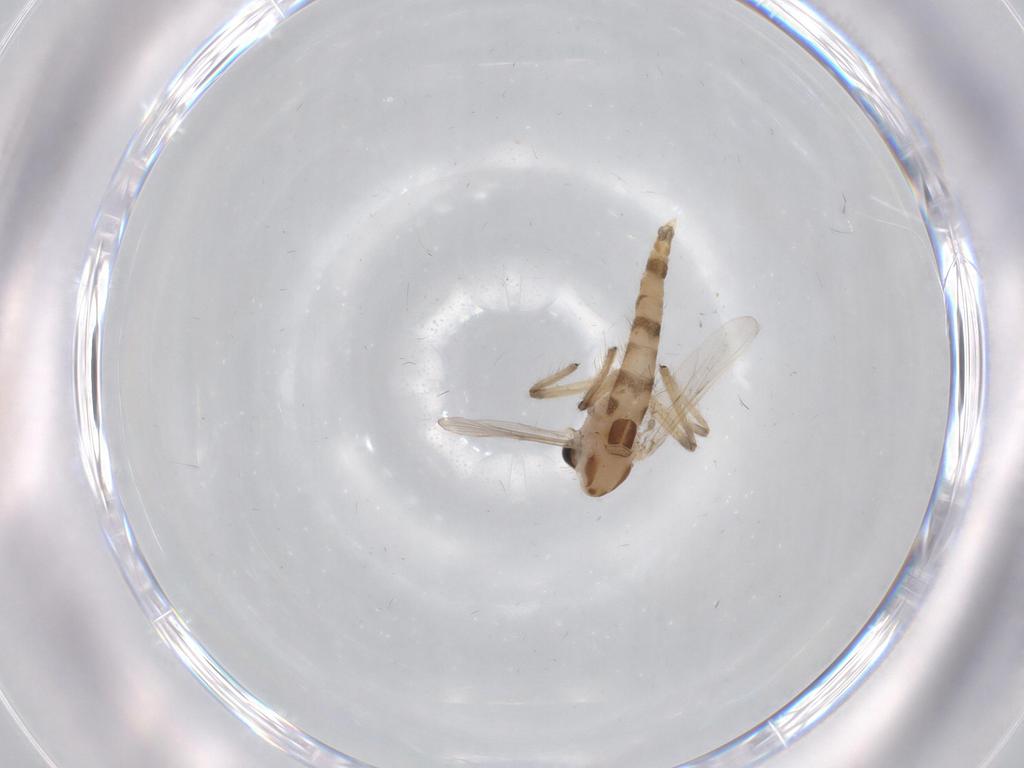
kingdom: Animalia
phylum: Arthropoda
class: Insecta
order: Diptera
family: Chironomidae
